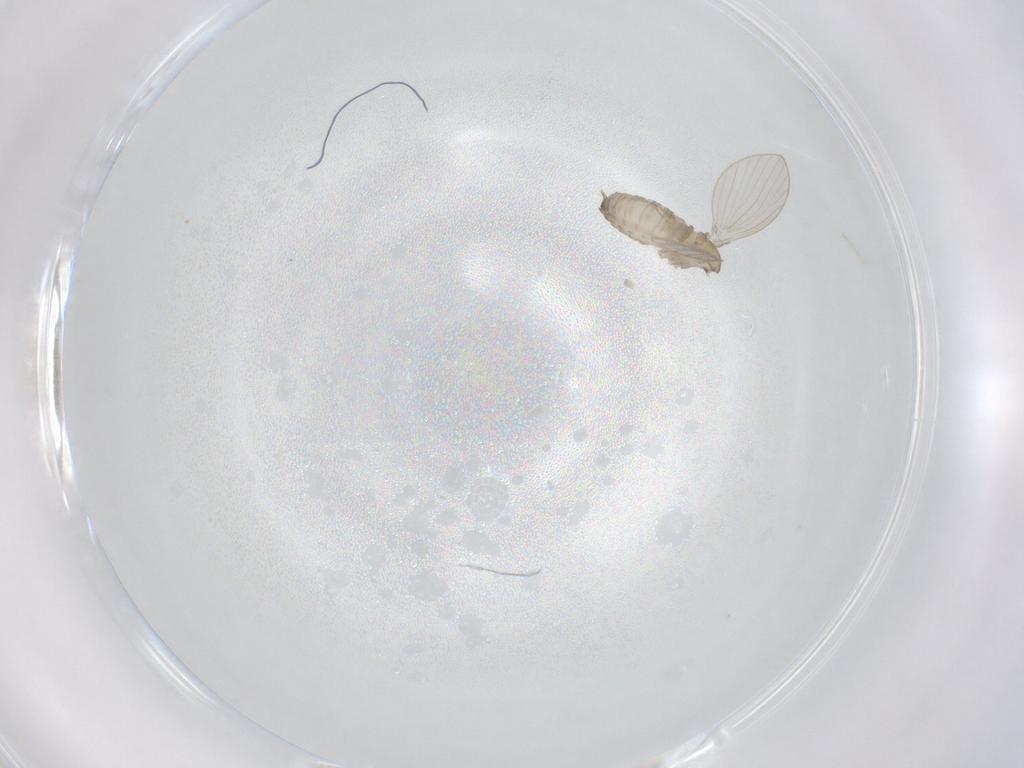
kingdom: Animalia
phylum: Arthropoda
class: Insecta
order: Diptera
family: Psychodidae
